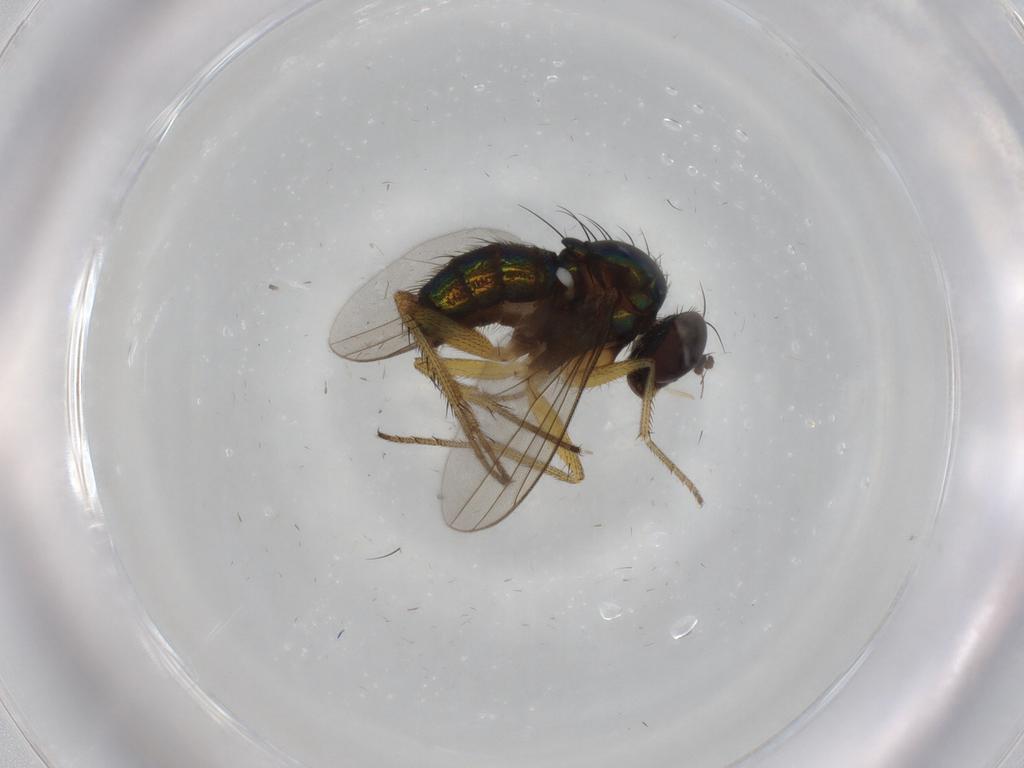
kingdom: Animalia
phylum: Arthropoda
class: Insecta
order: Diptera
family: Dolichopodidae
